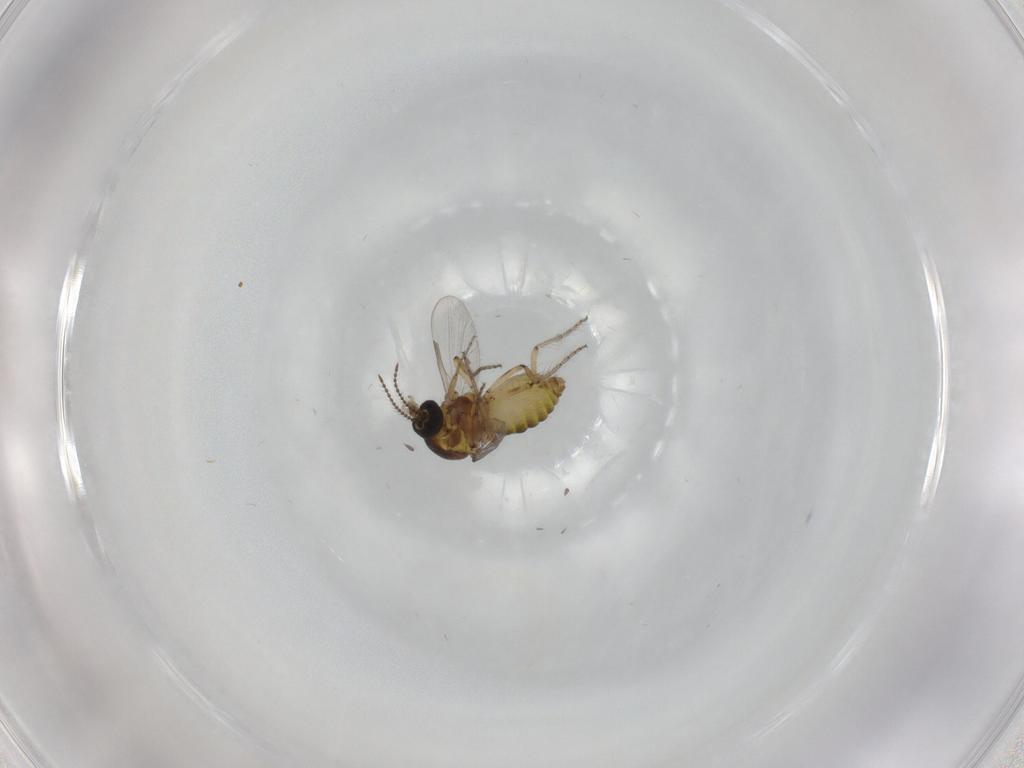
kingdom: Animalia
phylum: Arthropoda
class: Insecta
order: Diptera
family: Ceratopogonidae
